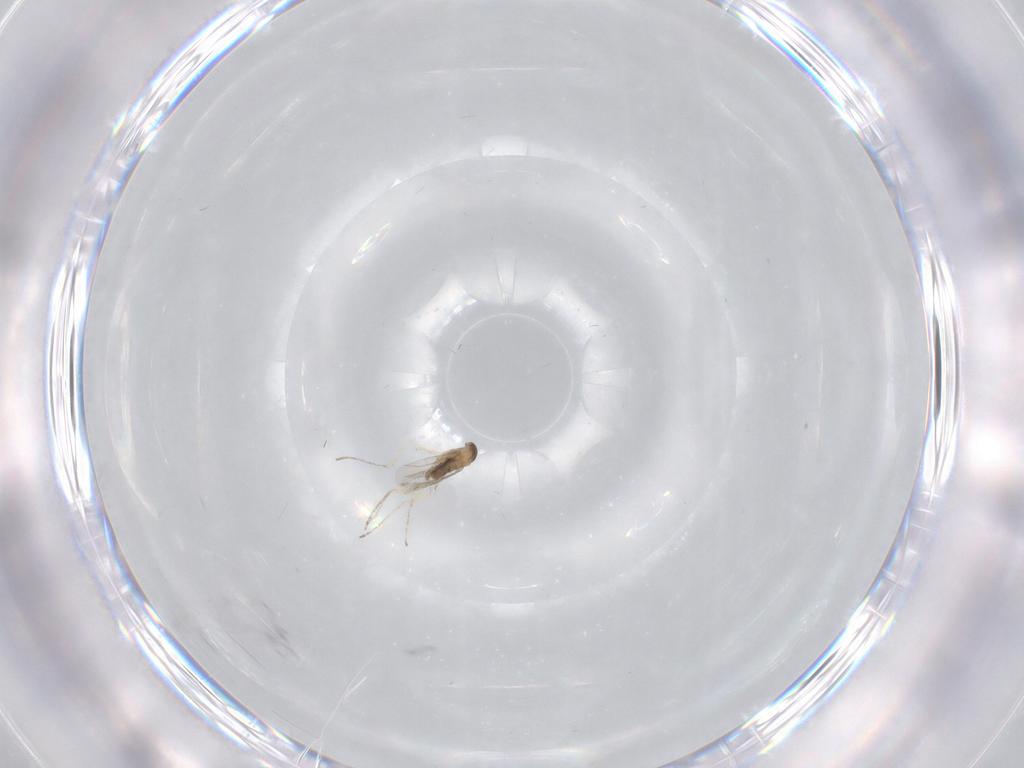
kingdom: Animalia
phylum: Arthropoda
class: Insecta
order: Diptera
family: Cecidomyiidae
